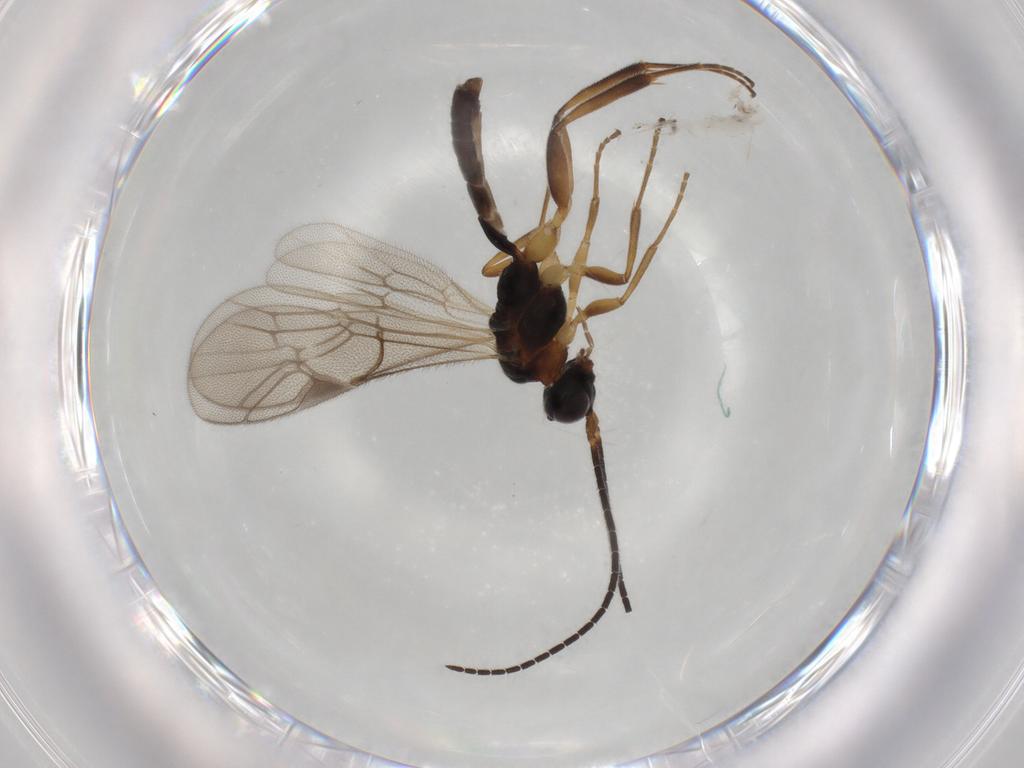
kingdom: Animalia
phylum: Arthropoda
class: Insecta
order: Hymenoptera
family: Ichneumonidae
